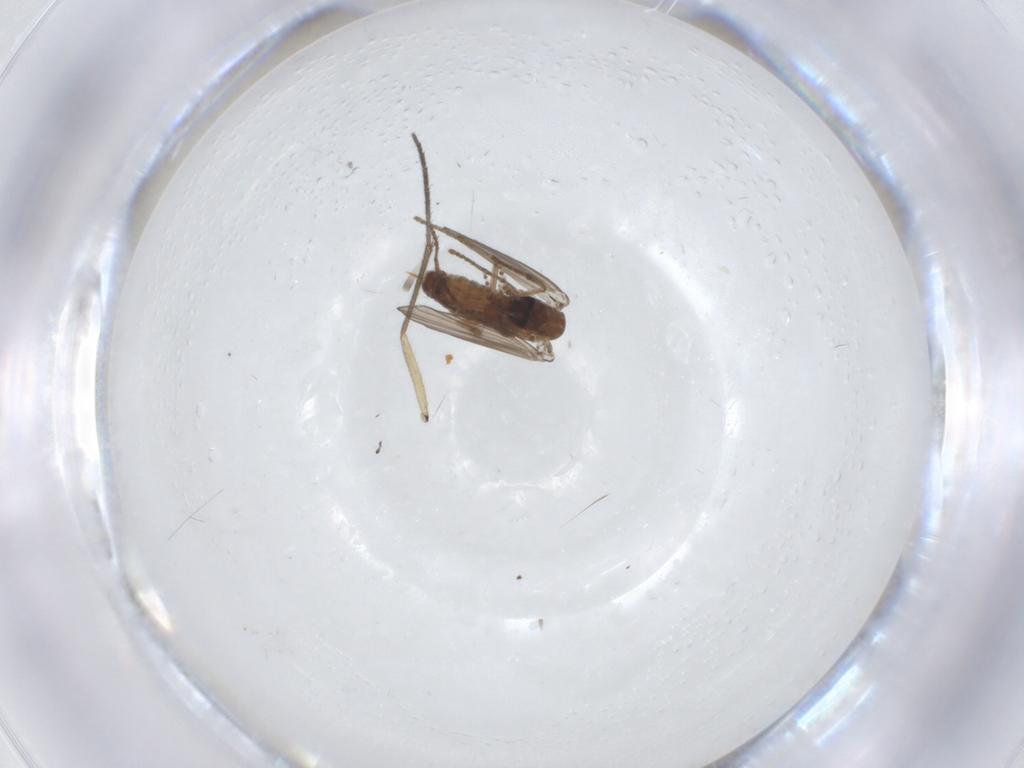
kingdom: Animalia
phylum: Arthropoda
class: Insecta
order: Diptera
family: Psychodidae
